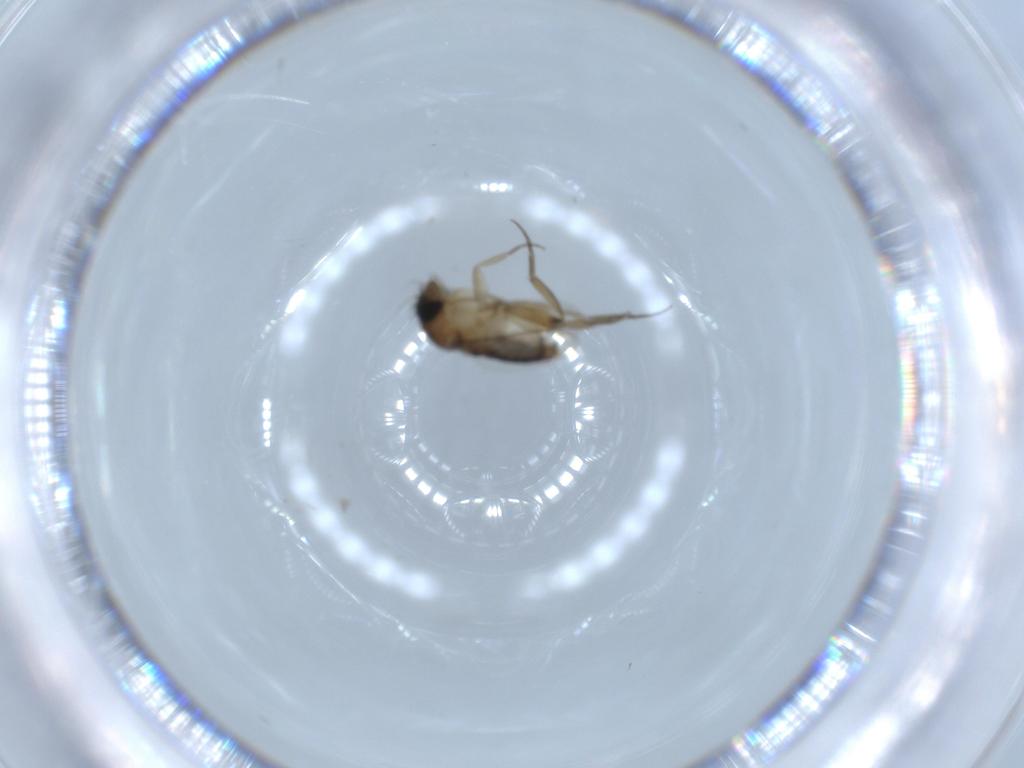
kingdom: Animalia
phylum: Arthropoda
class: Insecta
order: Diptera
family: Phoridae
